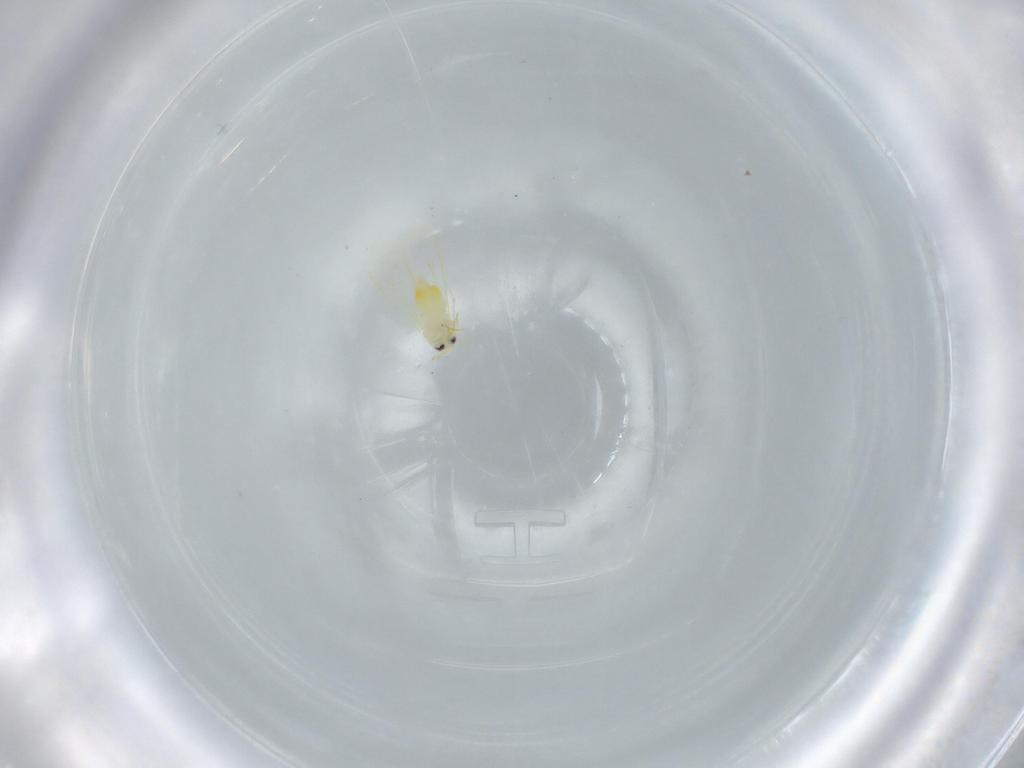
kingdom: Animalia
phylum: Arthropoda
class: Insecta
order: Hemiptera
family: Aleyrodidae
